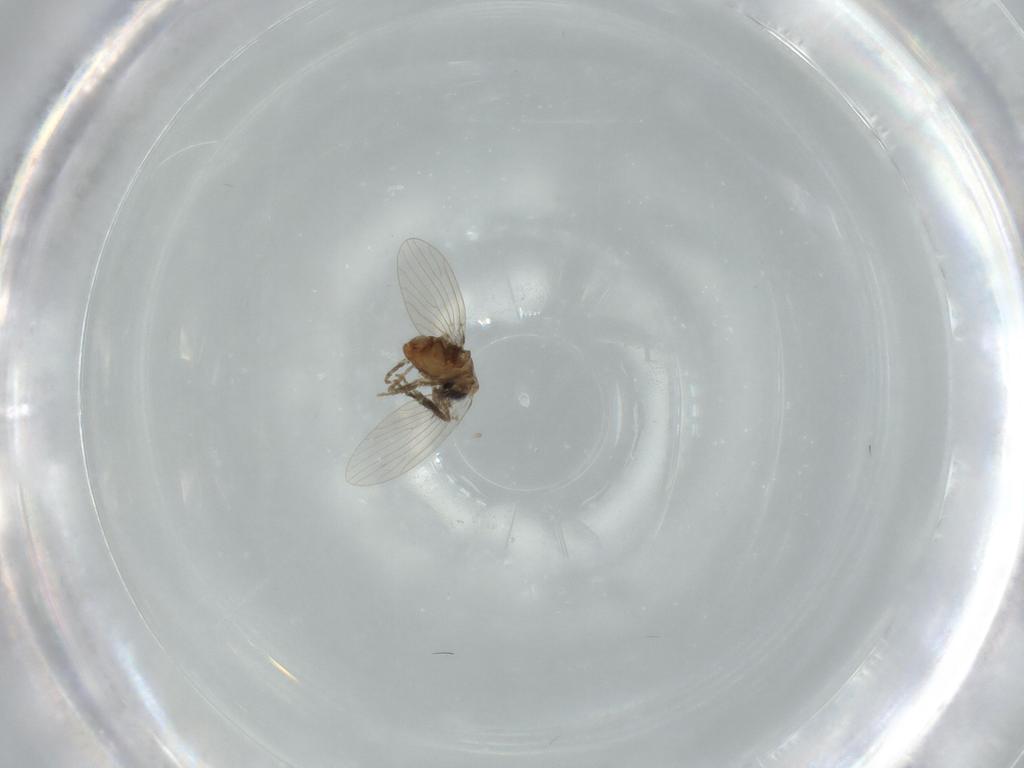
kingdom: Animalia
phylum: Arthropoda
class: Insecta
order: Diptera
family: Psychodidae
